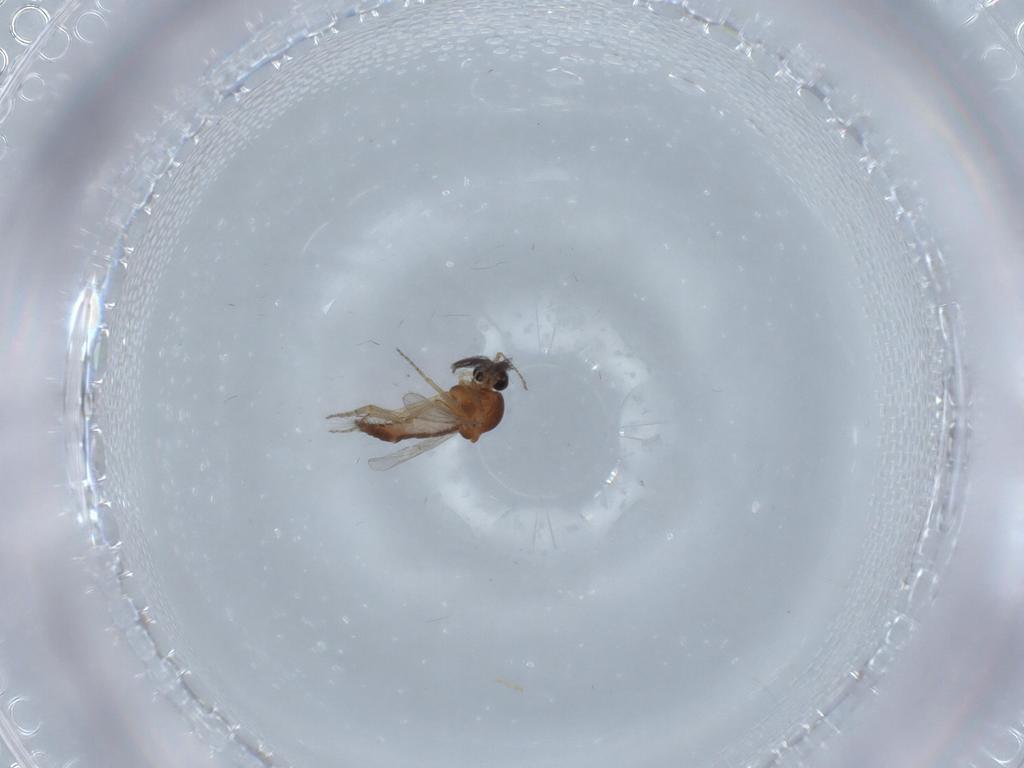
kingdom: Animalia
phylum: Arthropoda
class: Insecta
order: Diptera
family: Ceratopogonidae
